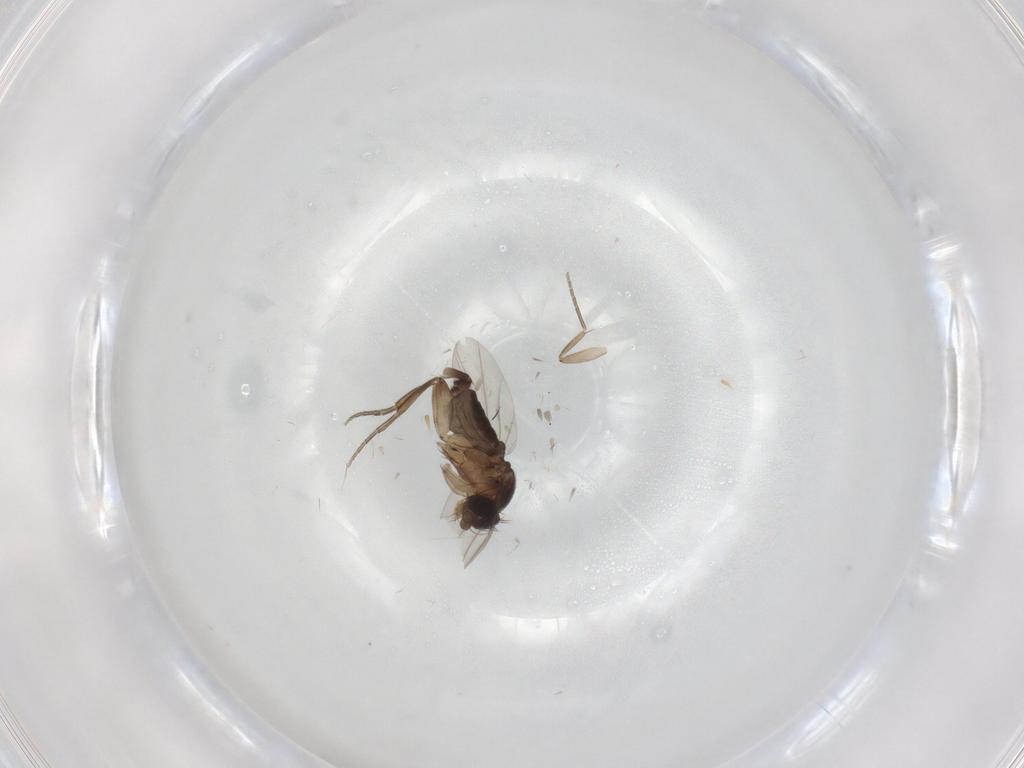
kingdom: Animalia
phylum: Arthropoda
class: Insecta
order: Diptera
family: Phoridae
